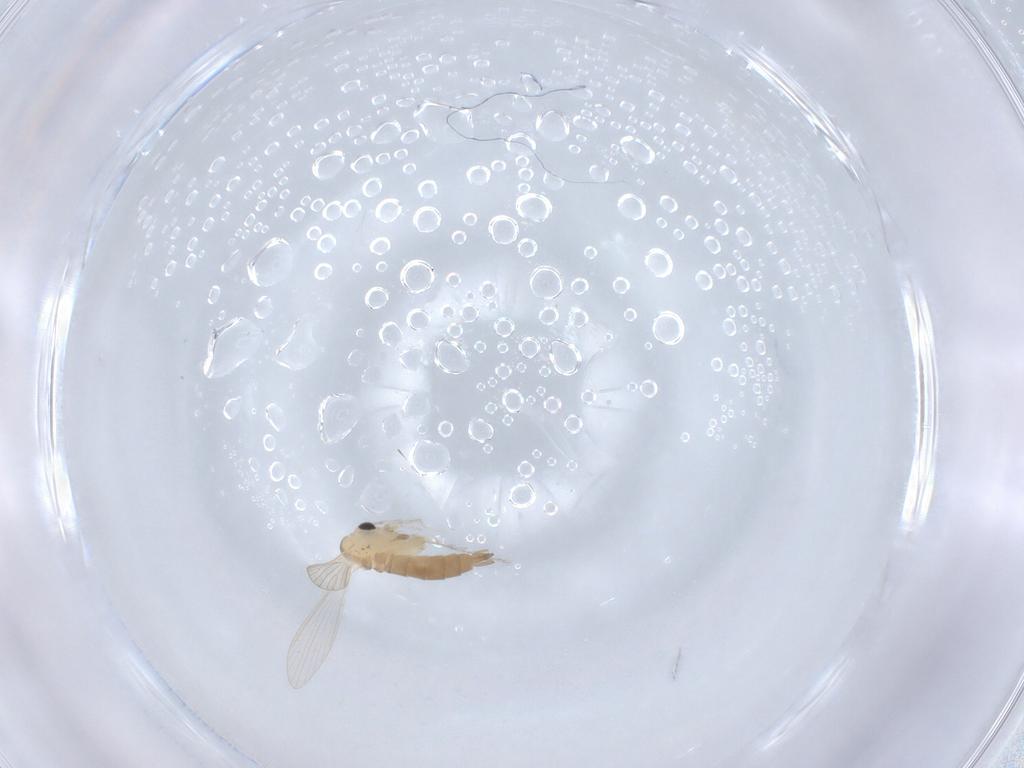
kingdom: Animalia
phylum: Arthropoda
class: Insecta
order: Diptera
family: Psychodidae
